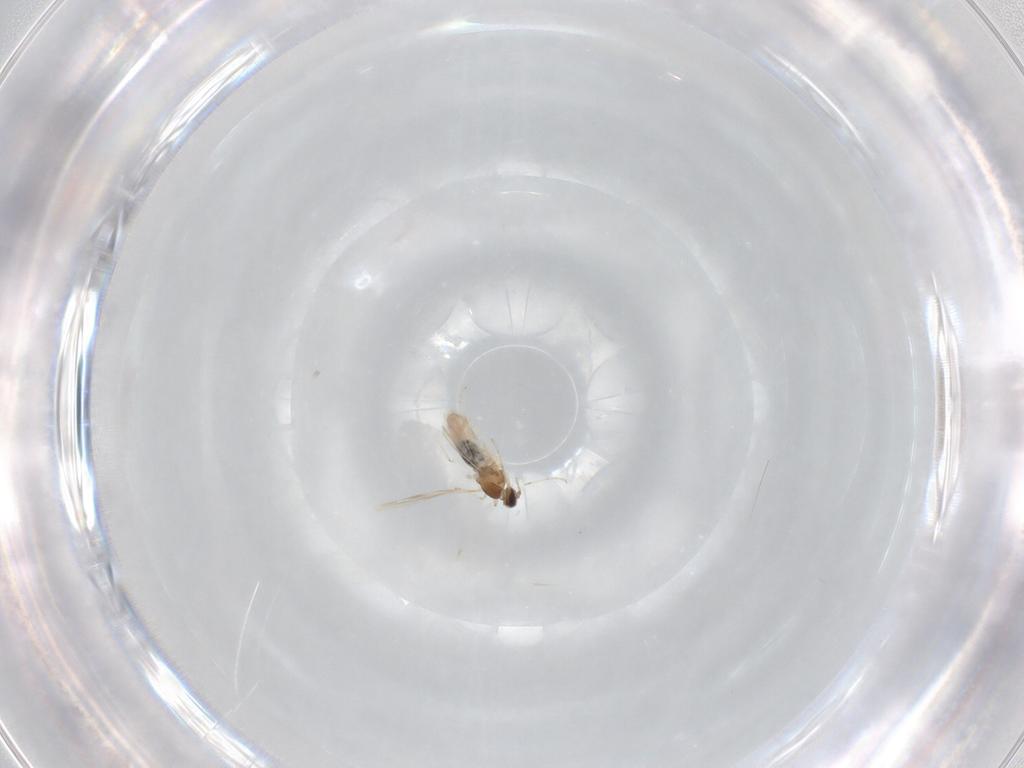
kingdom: Animalia
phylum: Arthropoda
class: Insecta
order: Diptera
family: Cecidomyiidae
